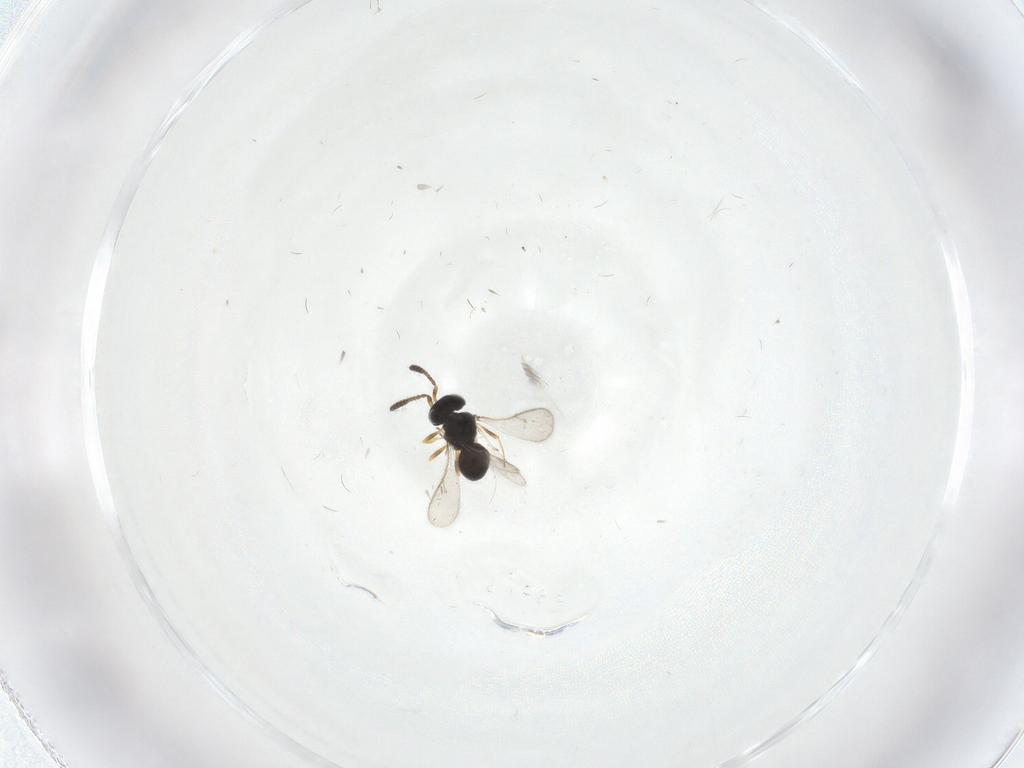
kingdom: Animalia
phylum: Arthropoda
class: Insecta
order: Hymenoptera
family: Scelionidae
